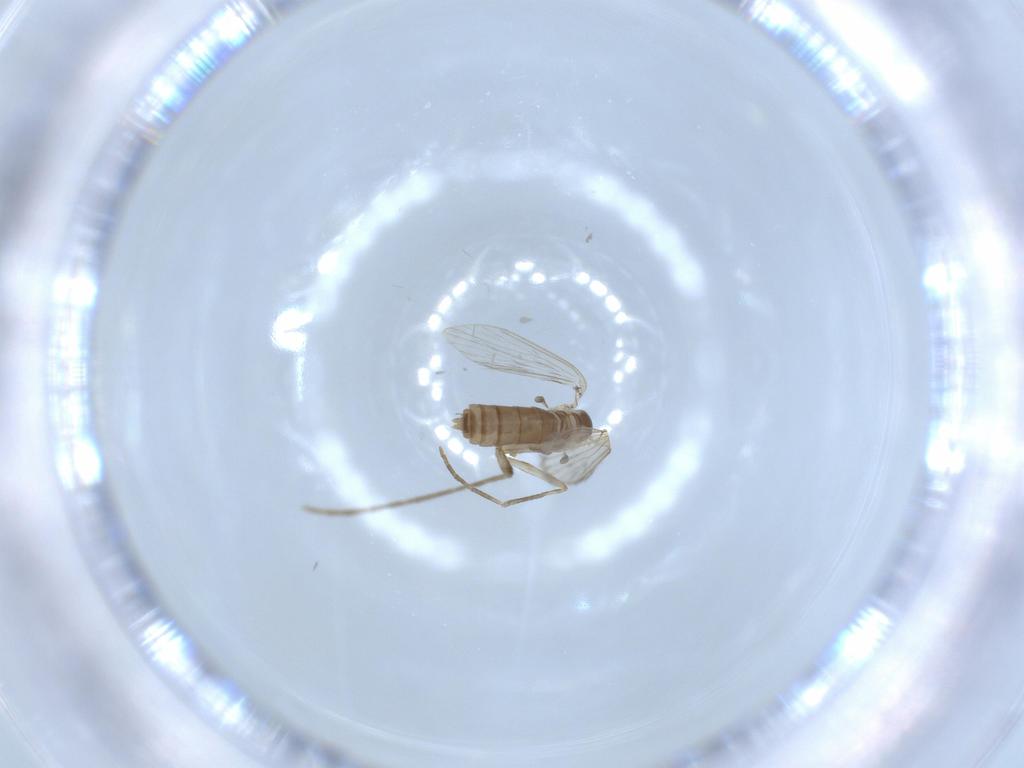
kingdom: Animalia
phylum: Arthropoda
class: Insecta
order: Diptera
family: Psychodidae
